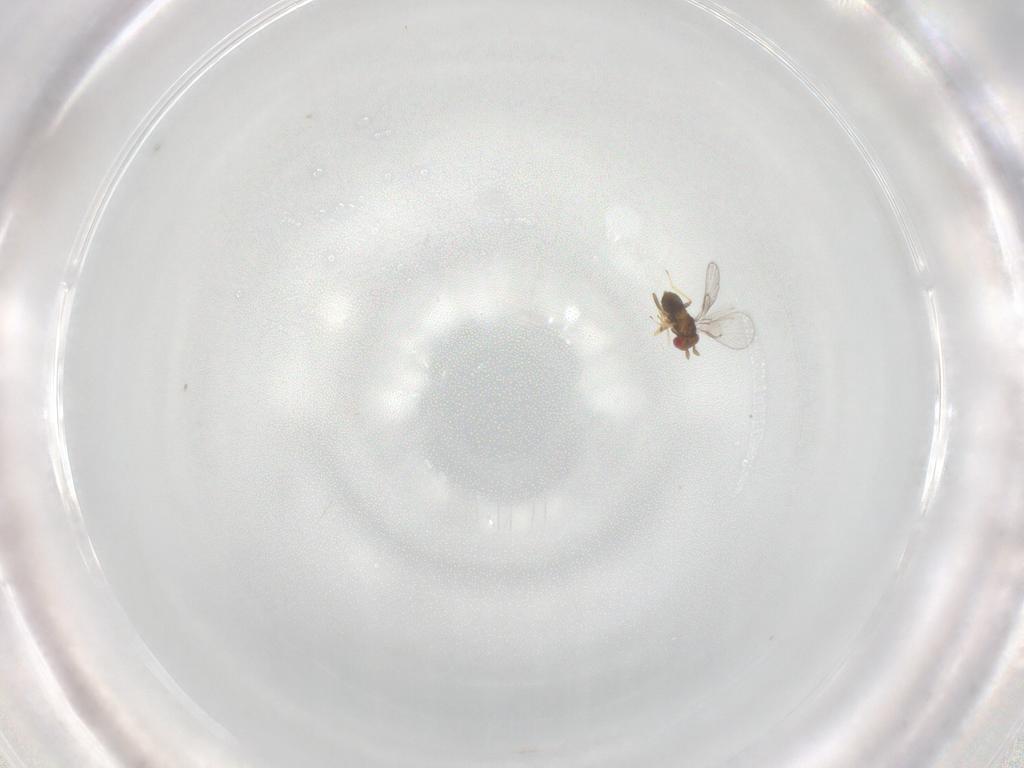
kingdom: Animalia
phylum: Arthropoda
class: Insecta
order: Hymenoptera
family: Trichogrammatidae
